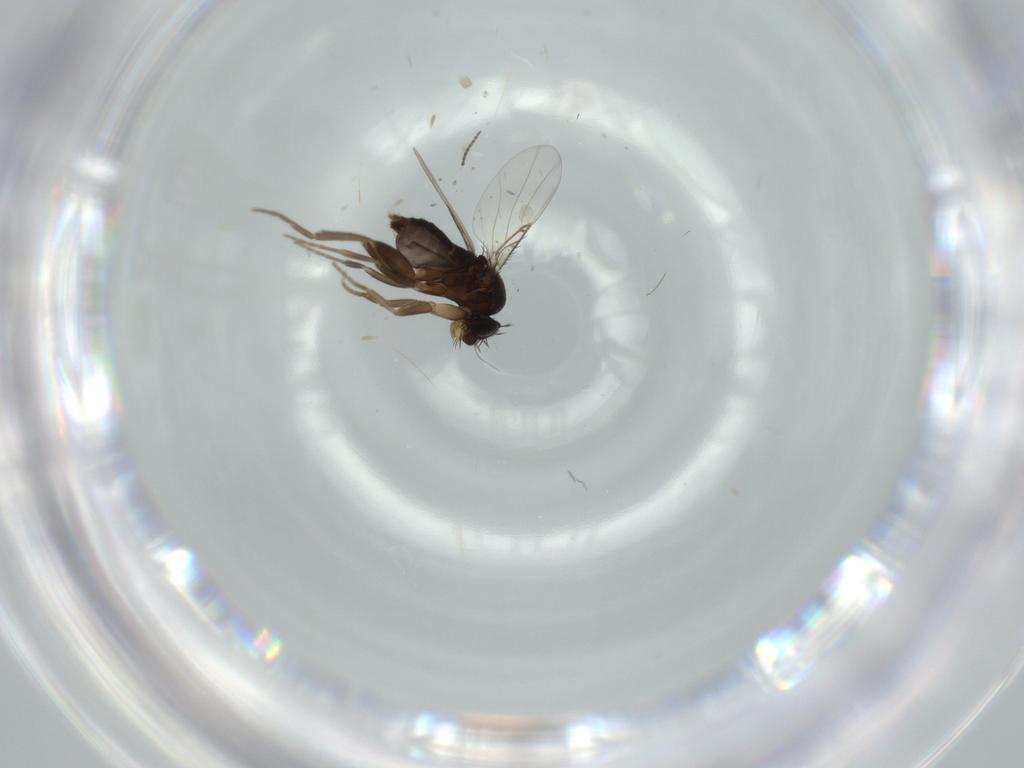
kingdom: Animalia
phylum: Arthropoda
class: Insecta
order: Diptera
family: Phoridae
